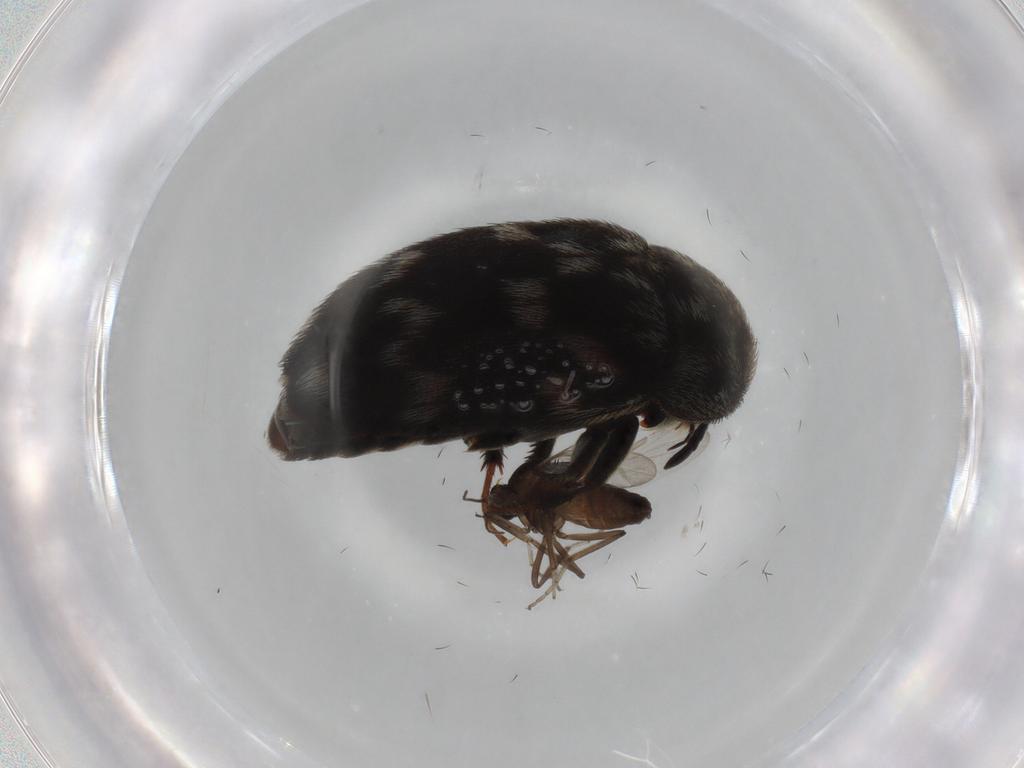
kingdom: Animalia
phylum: Arthropoda
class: Insecta
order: Coleoptera
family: Dermestidae
